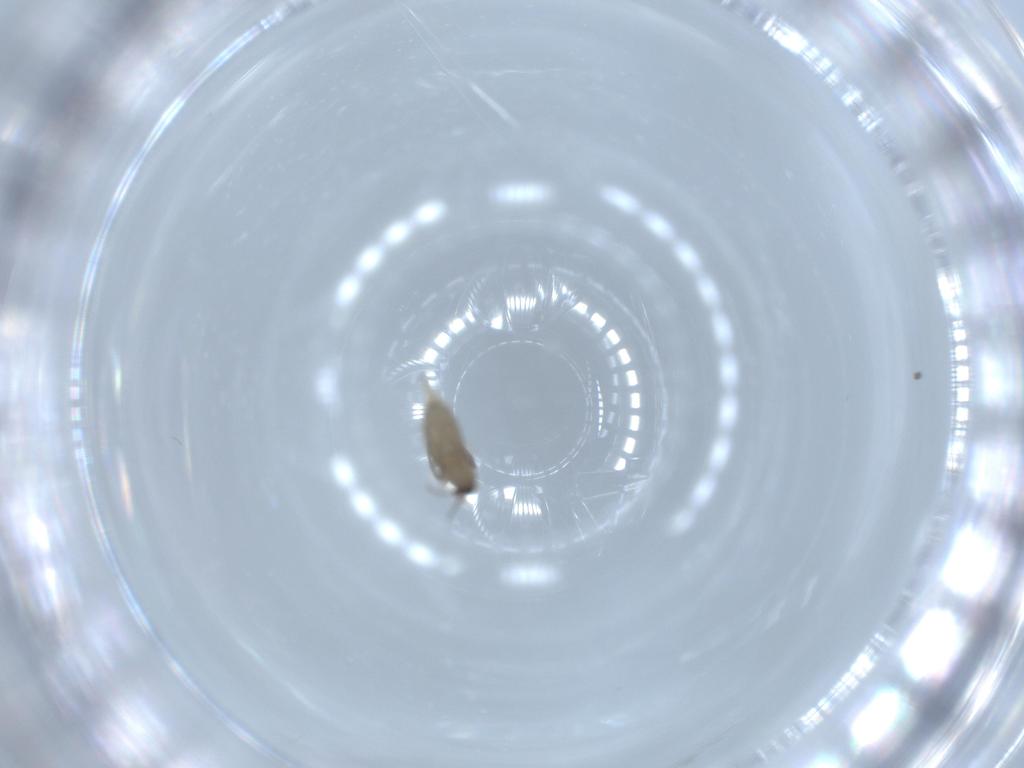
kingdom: Animalia
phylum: Arthropoda
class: Insecta
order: Diptera
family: Cecidomyiidae
